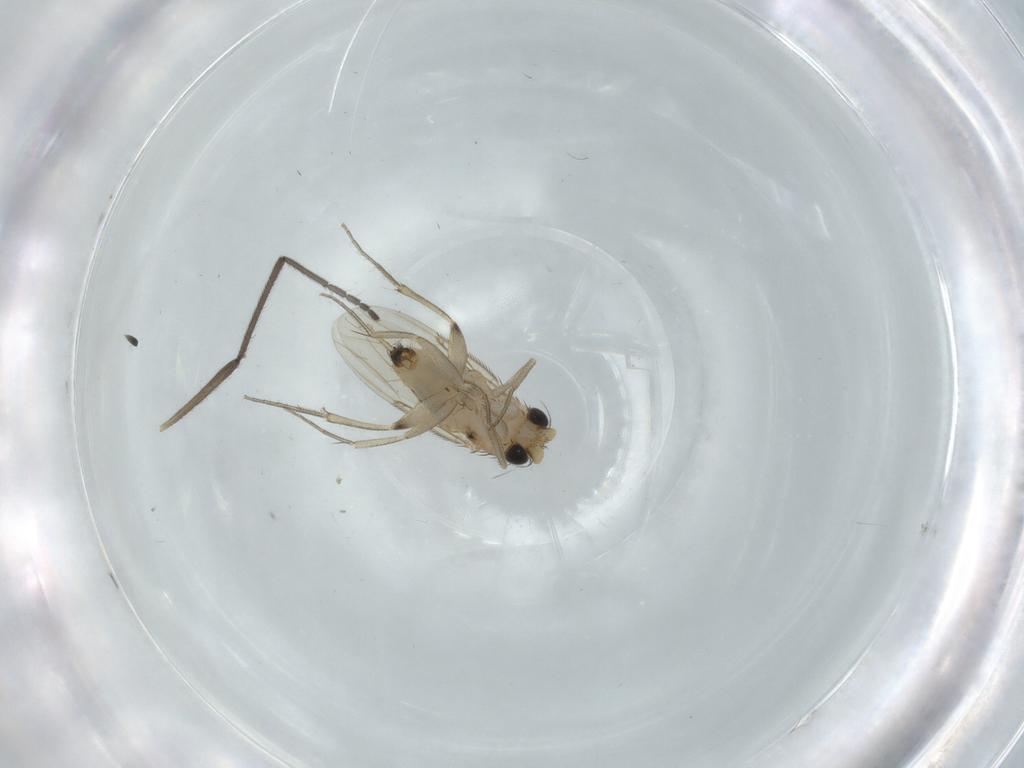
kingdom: Animalia
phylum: Arthropoda
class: Insecta
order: Diptera
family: Phoridae
